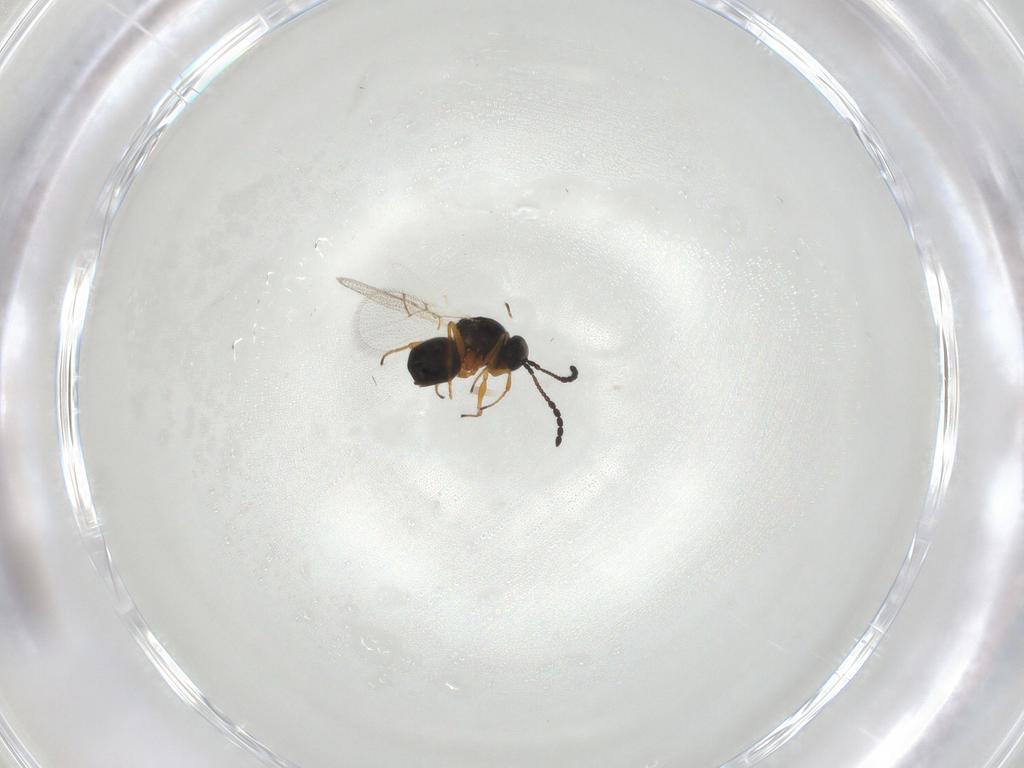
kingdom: Animalia
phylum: Arthropoda
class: Insecta
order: Hymenoptera
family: Figitidae
